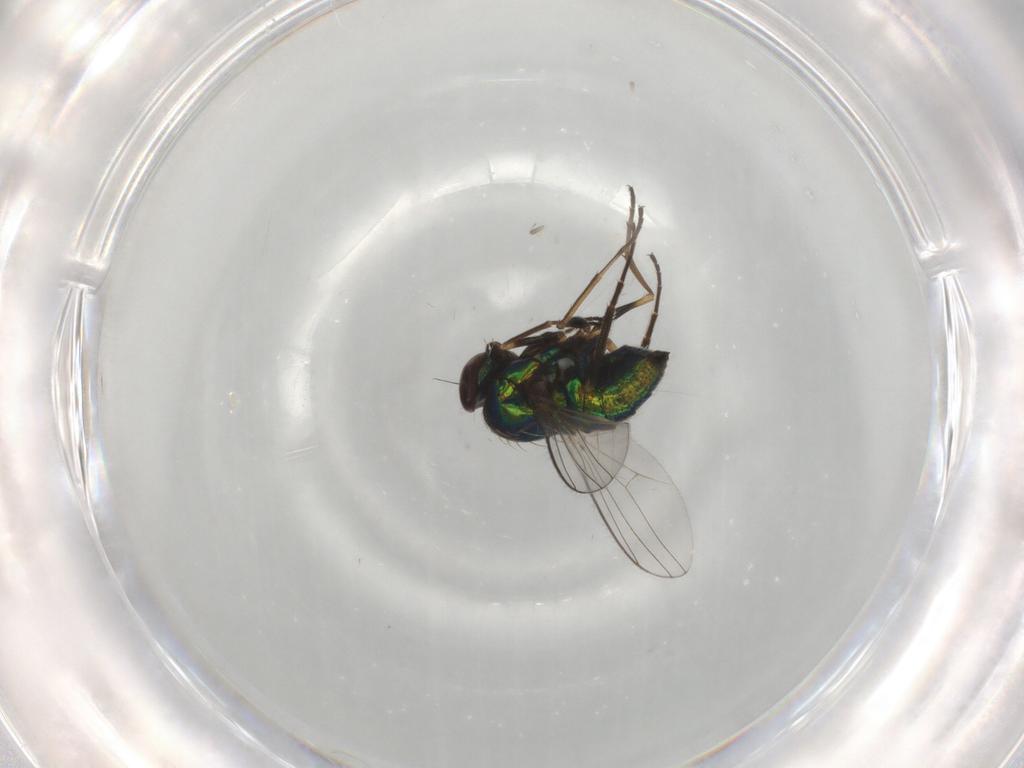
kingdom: Animalia
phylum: Arthropoda
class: Insecta
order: Diptera
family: Dolichopodidae
